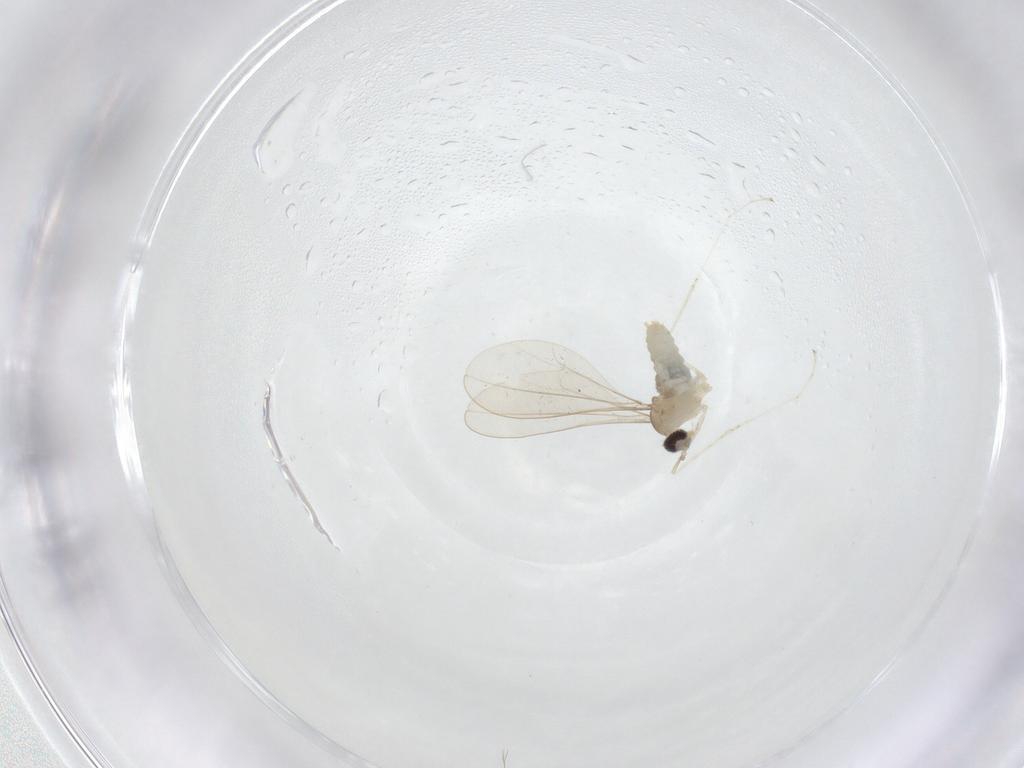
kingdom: Animalia
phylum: Arthropoda
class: Insecta
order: Diptera
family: Cecidomyiidae
